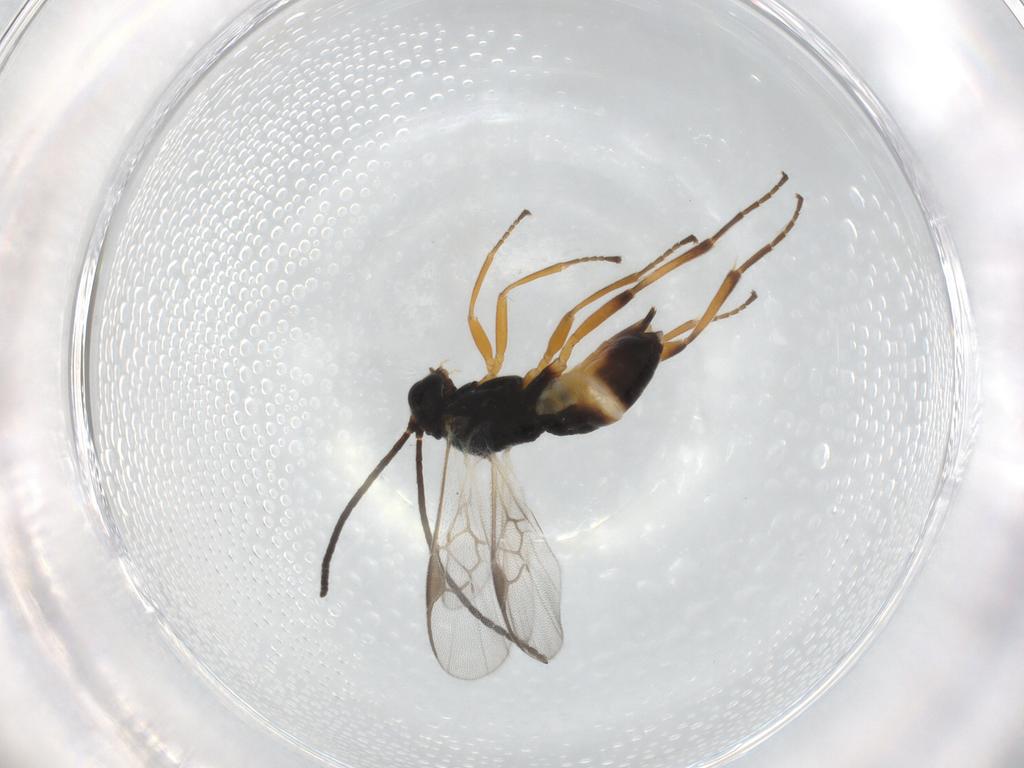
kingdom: Animalia
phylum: Arthropoda
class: Insecta
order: Hymenoptera
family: Braconidae
